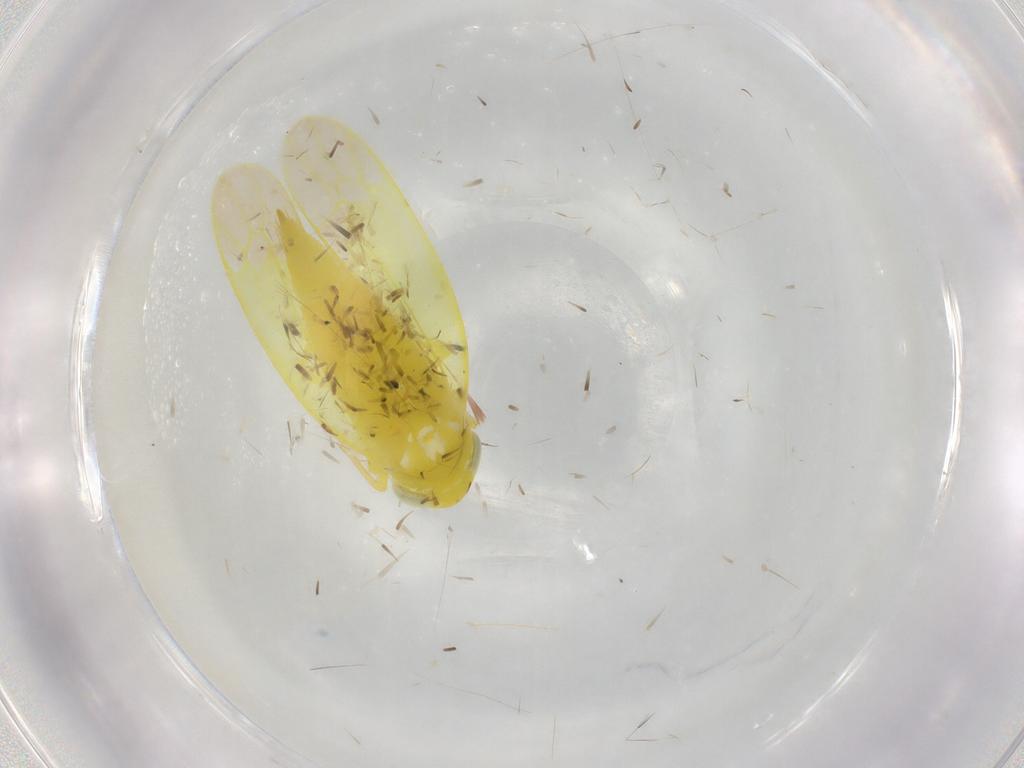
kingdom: Animalia
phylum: Arthropoda
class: Insecta
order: Hemiptera
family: Cicadellidae
